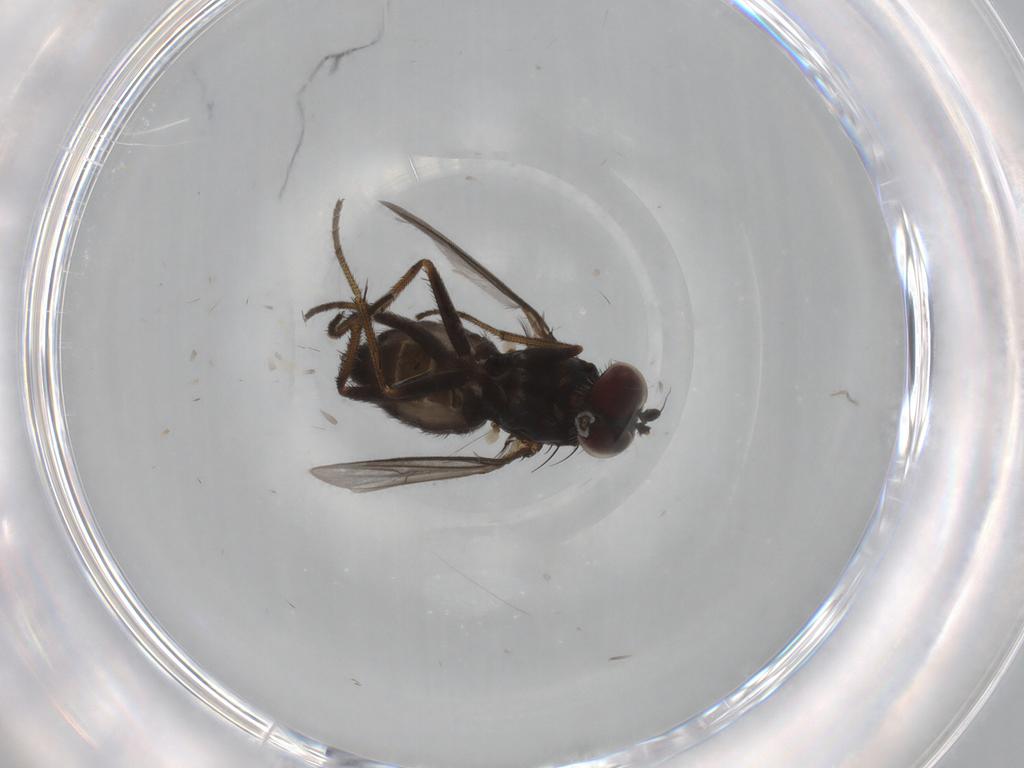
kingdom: Animalia
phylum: Arthropoda
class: Insecta
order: Diptera
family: Dolichopodidae
